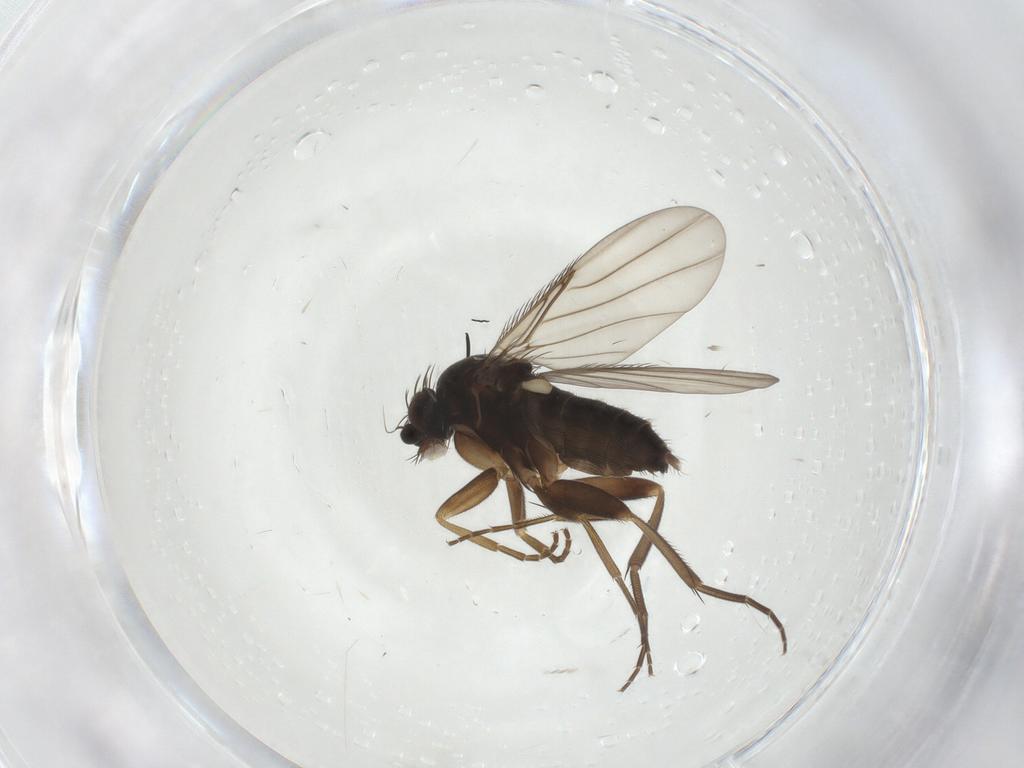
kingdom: Animalia
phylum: Arthropoda
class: Insecta
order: Diptera
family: Phoridae
